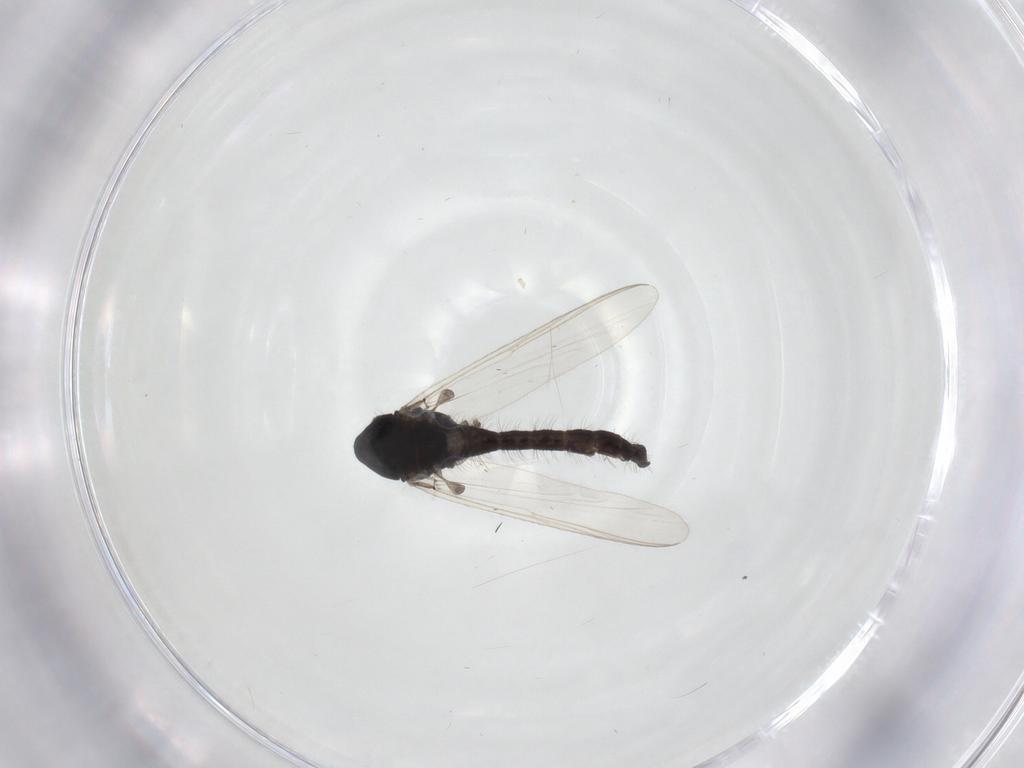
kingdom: Animalia
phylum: Arthropoda
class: Insecta
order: Diptera
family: Chironomidae
